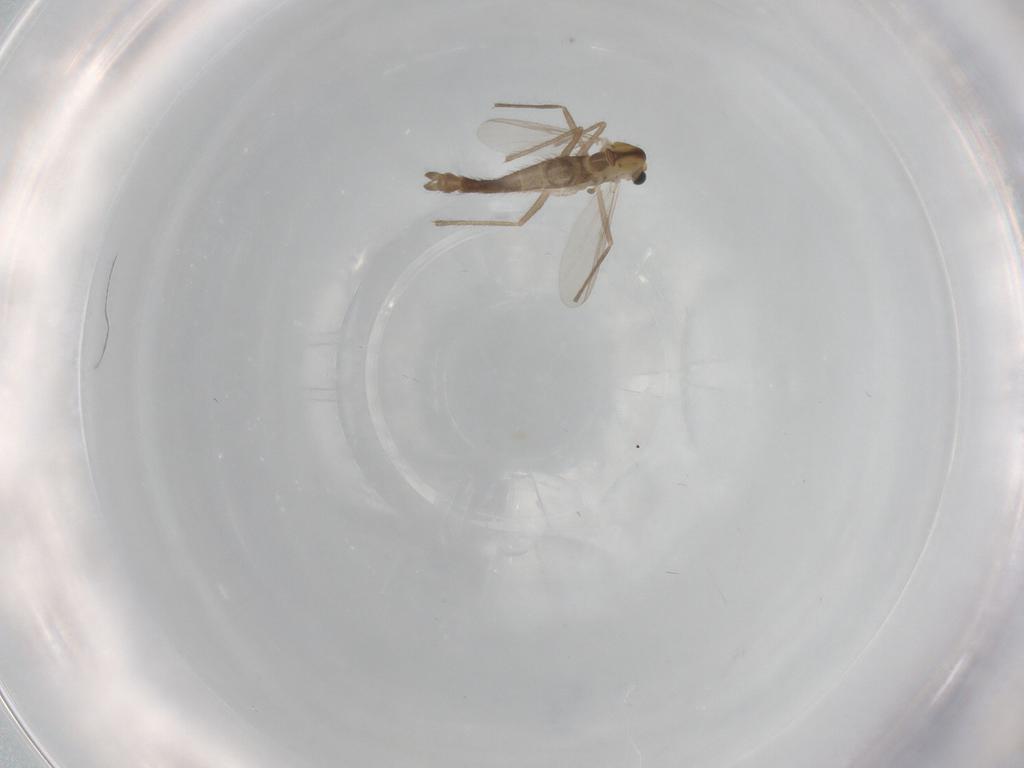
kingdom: Animalia
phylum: Arthropoda
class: Insecta
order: Diptera
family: Chironomidae
